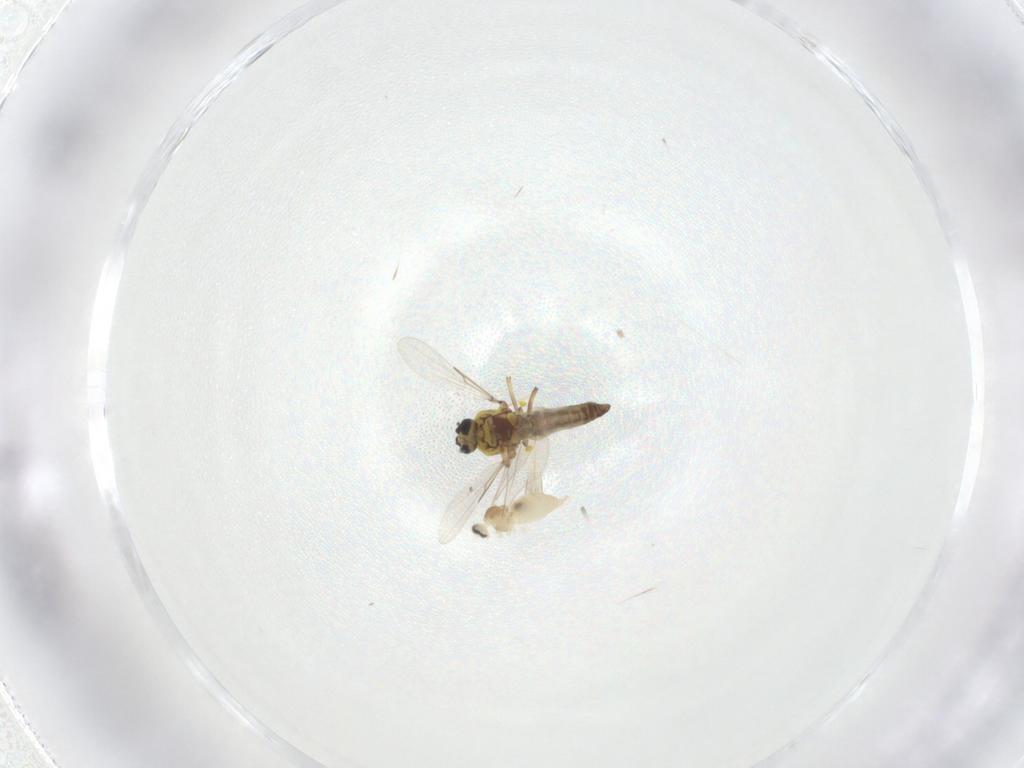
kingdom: Animalia
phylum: Arthropoda
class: Insecta
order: Diptera
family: Ceratopogonidae
